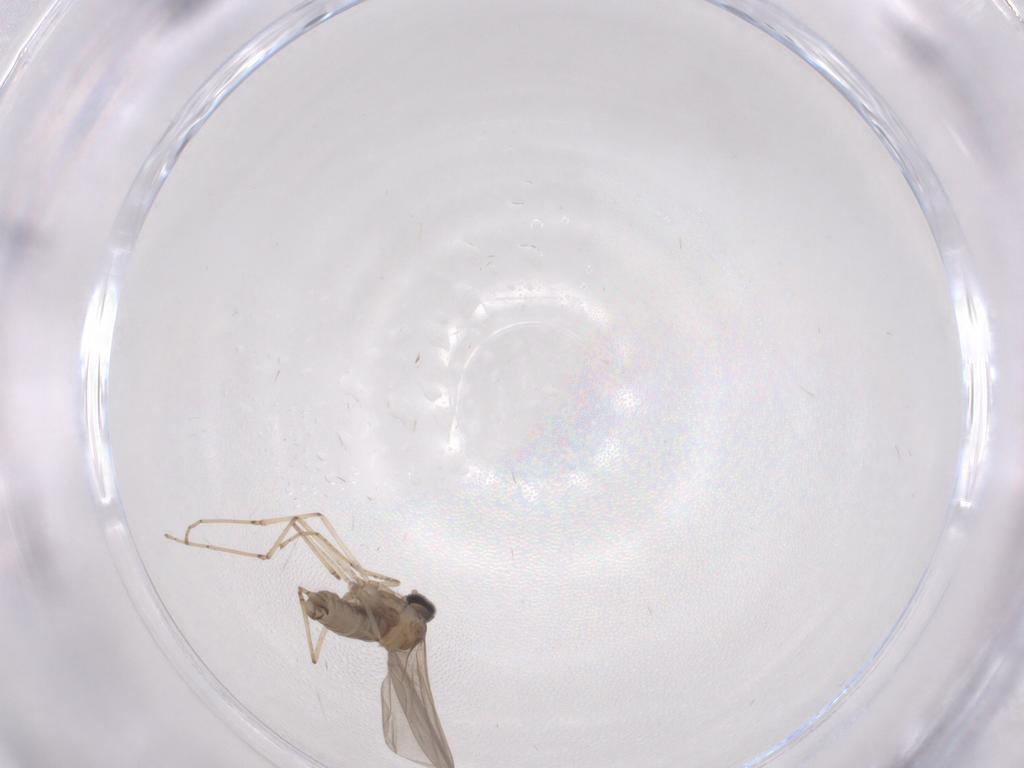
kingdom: Animalia
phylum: Arthropoda
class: Insecta
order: Diptera
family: Cecidomyiidae
